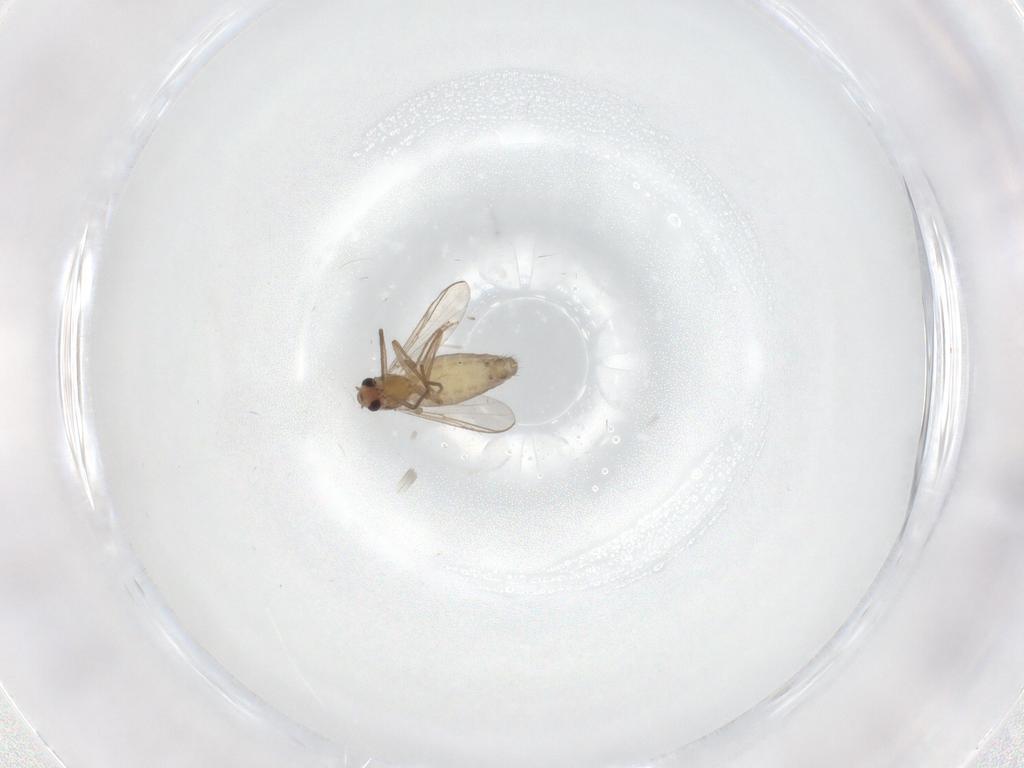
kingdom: Animalia
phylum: Arthropoda
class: Insecta
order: Diptera
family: Chironomidae
